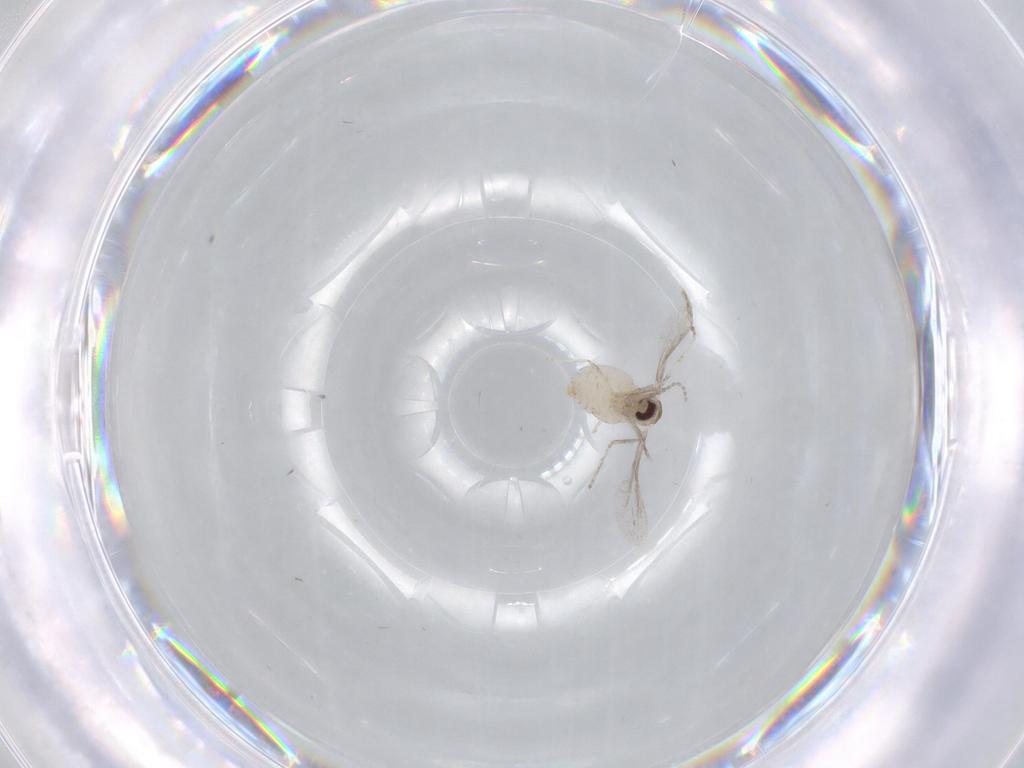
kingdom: Animalia
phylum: Arthropoda
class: Insecta
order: Diptera
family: Cecidomyiidae
